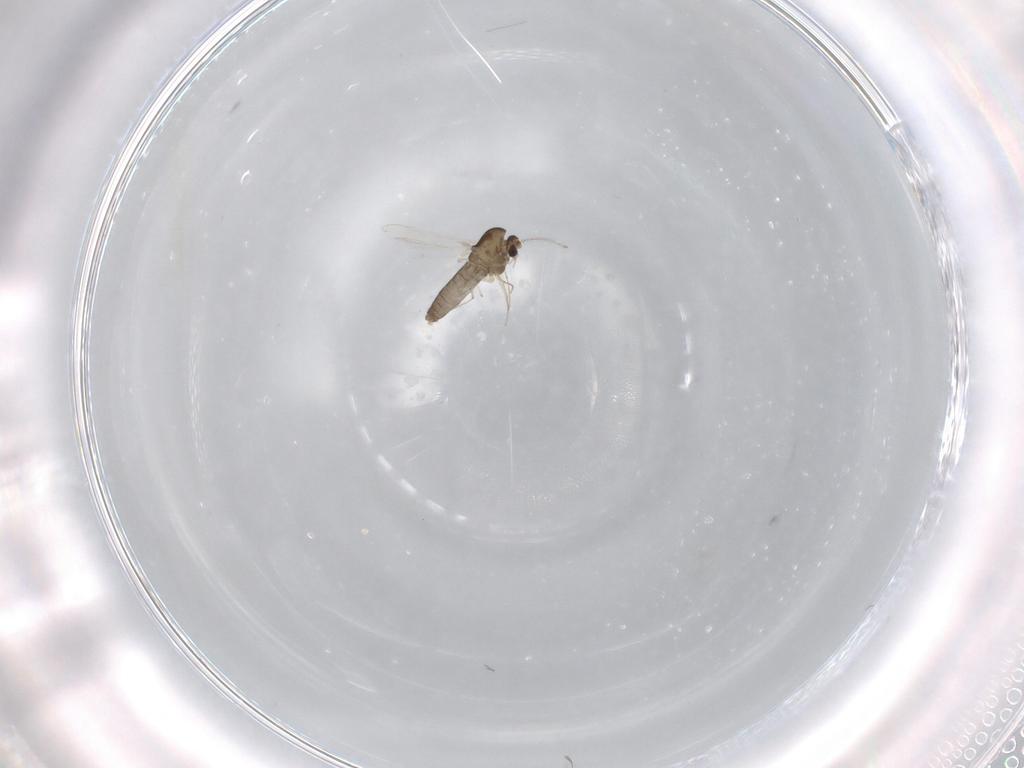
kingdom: Animalia
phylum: Arthropoda
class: Insecta
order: Diptera
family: Chironomidae
